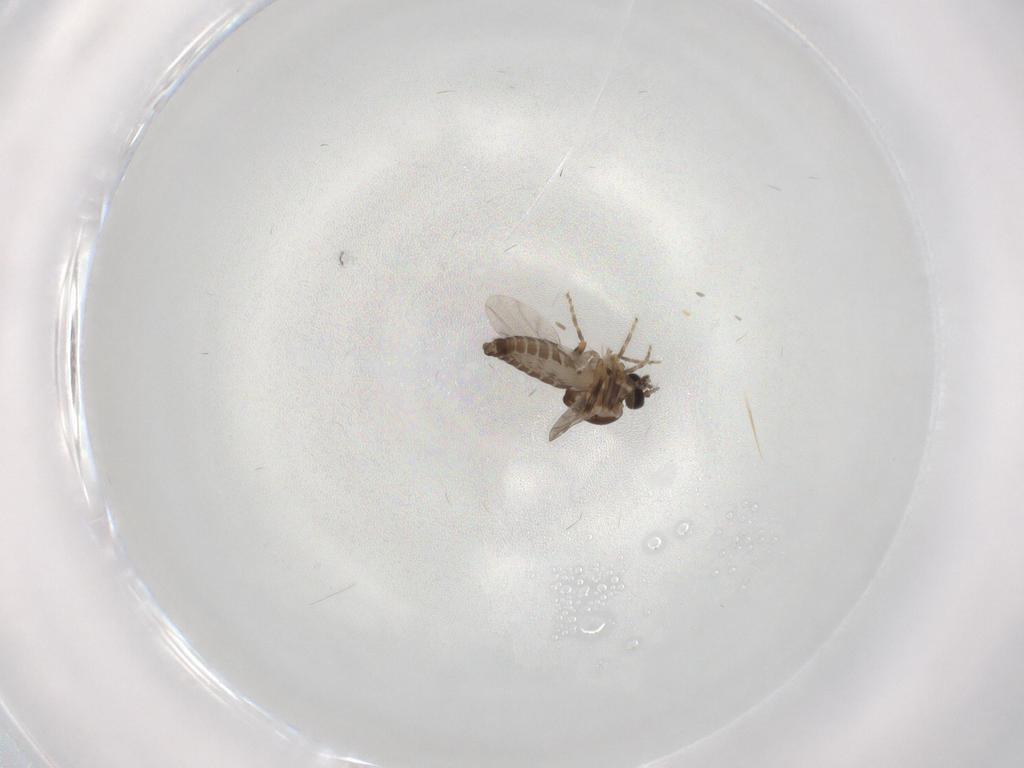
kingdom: Animalia
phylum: Arthropoda
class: Insecta
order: Diptera
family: Ceratopogonidae
